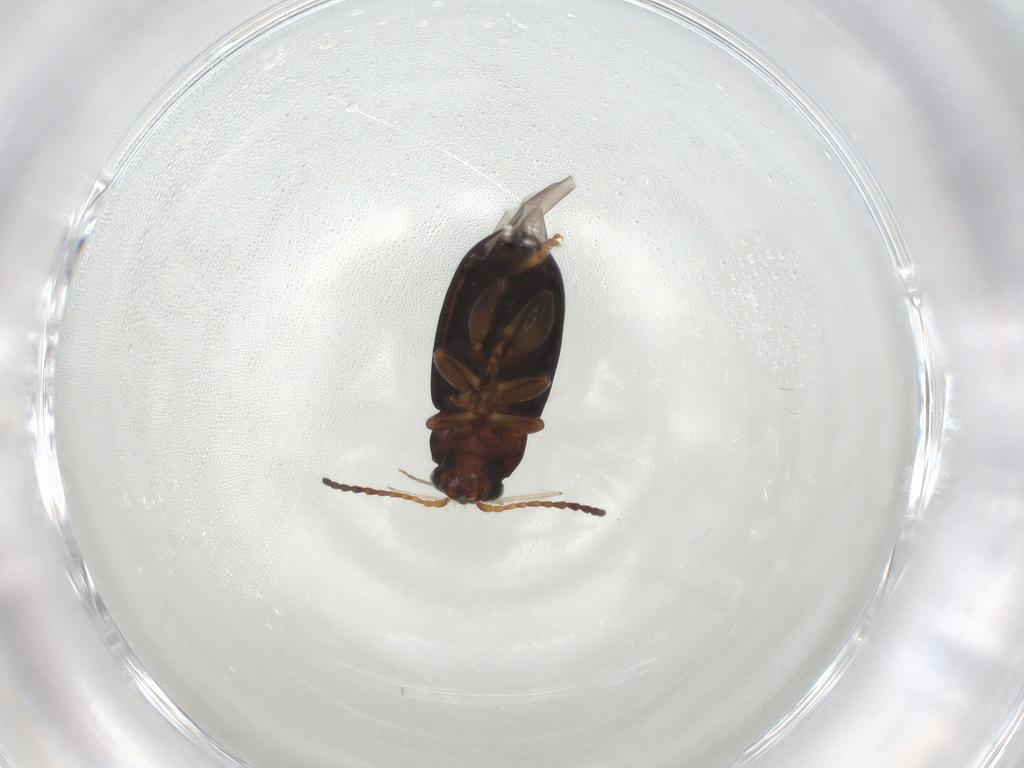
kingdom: Animalia
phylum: Arthropoda
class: Insecta
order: Coleoptera
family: Chrysomelidae
